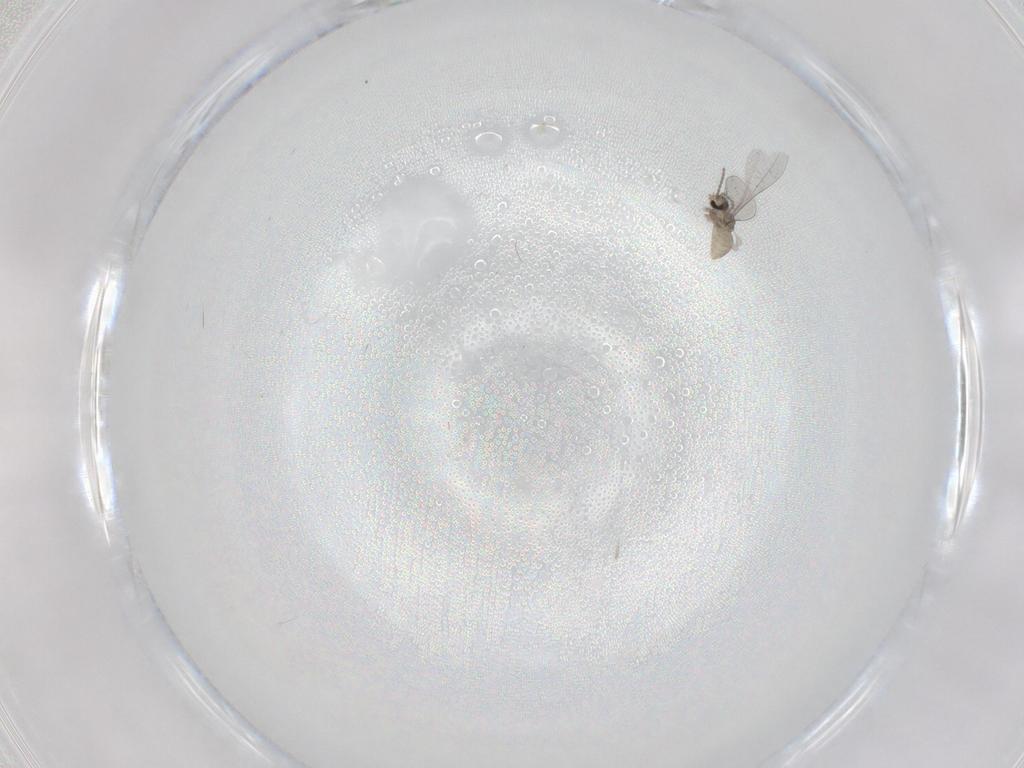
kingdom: Animalia
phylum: Arthropoda
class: Insecta
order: Diptera
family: Cecidomyiidae
